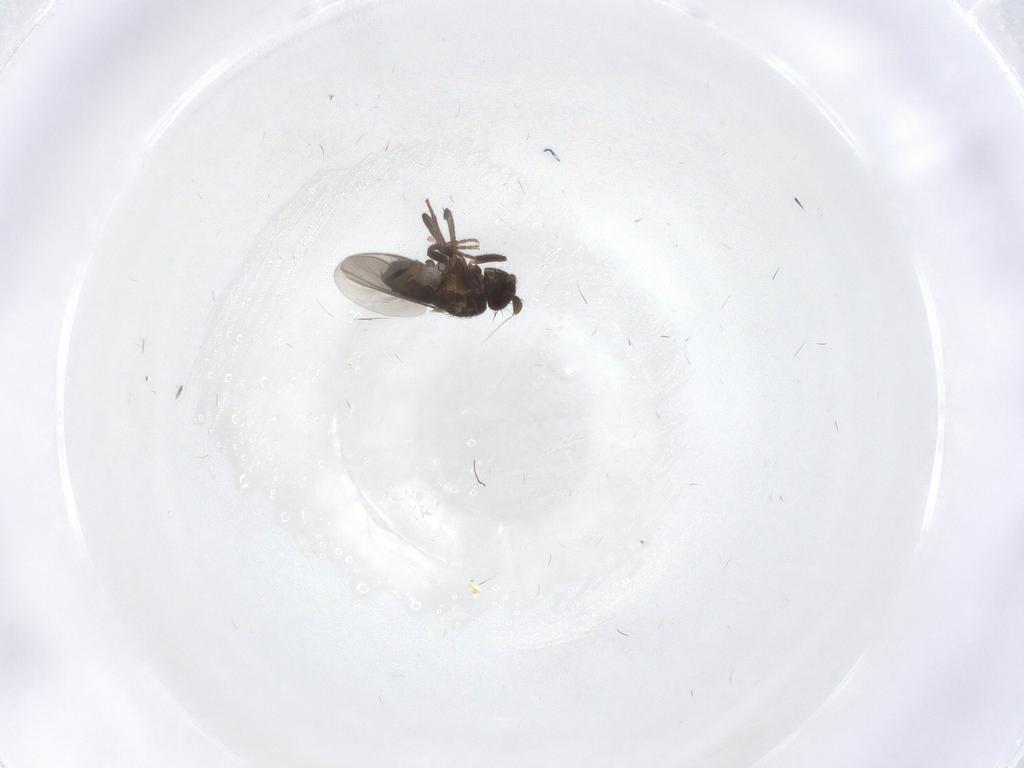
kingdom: Animalia
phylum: Arthropoda
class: Insecta
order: Diptera
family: Sphaeroceridae
